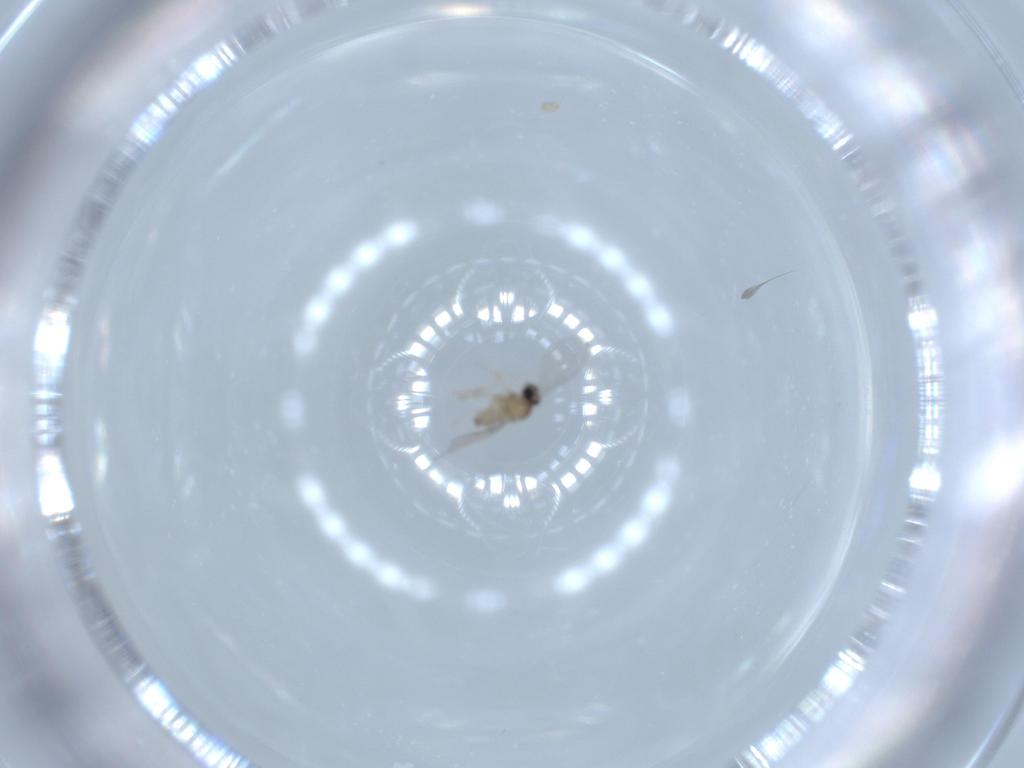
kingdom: Animalia
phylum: Arthropoda
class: Insecta
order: Diptera
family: Cecidomyiidae
